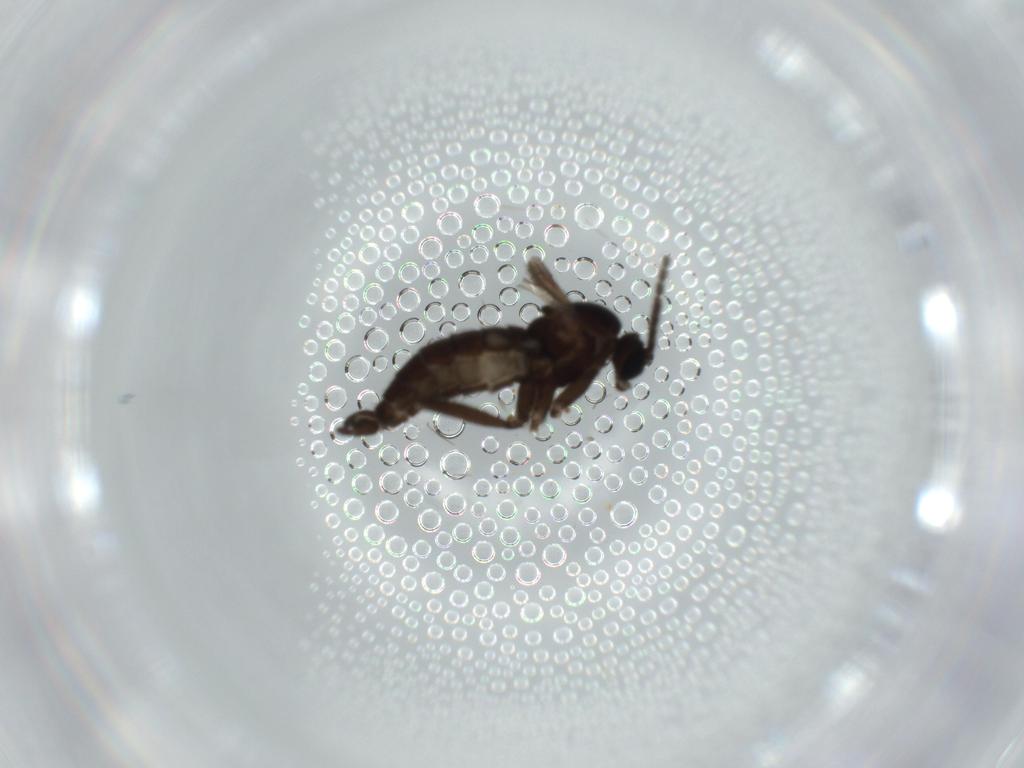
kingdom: Animalia
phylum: Arthropoda
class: Insecta
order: Diptera
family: Sciaridae
